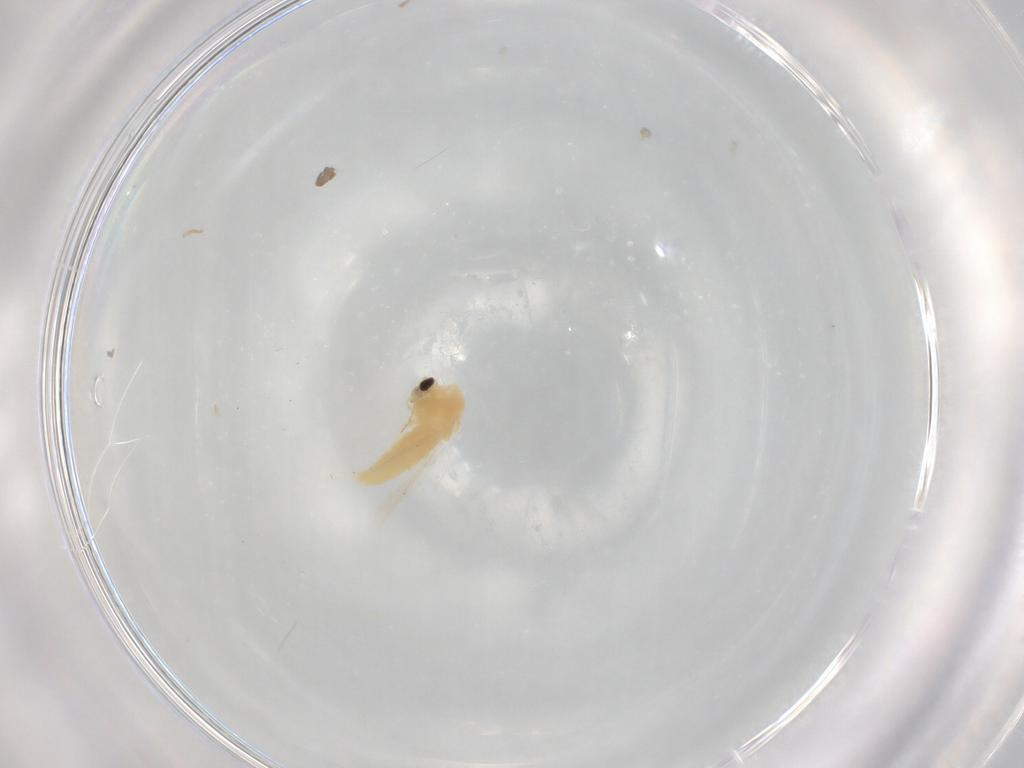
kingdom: Animalia
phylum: Arthropoda
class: Insecta
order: Diptera
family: Chironomidae
